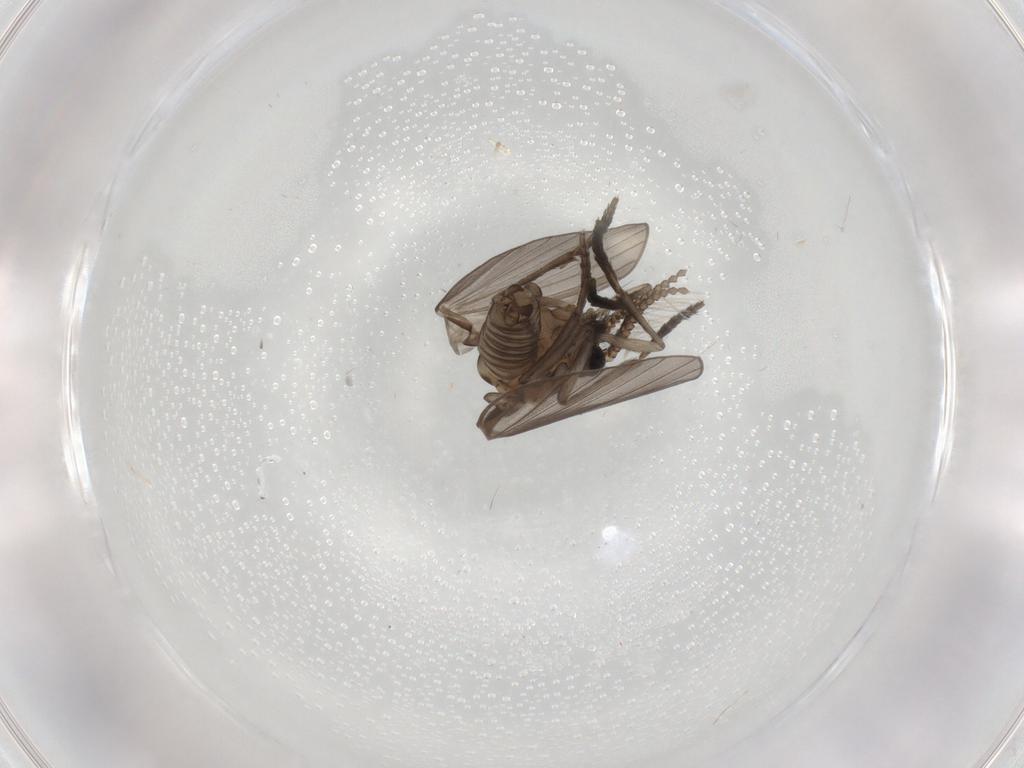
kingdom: Animalia
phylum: Arthropoda
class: Insecta
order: Diptera
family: Psychodidae
